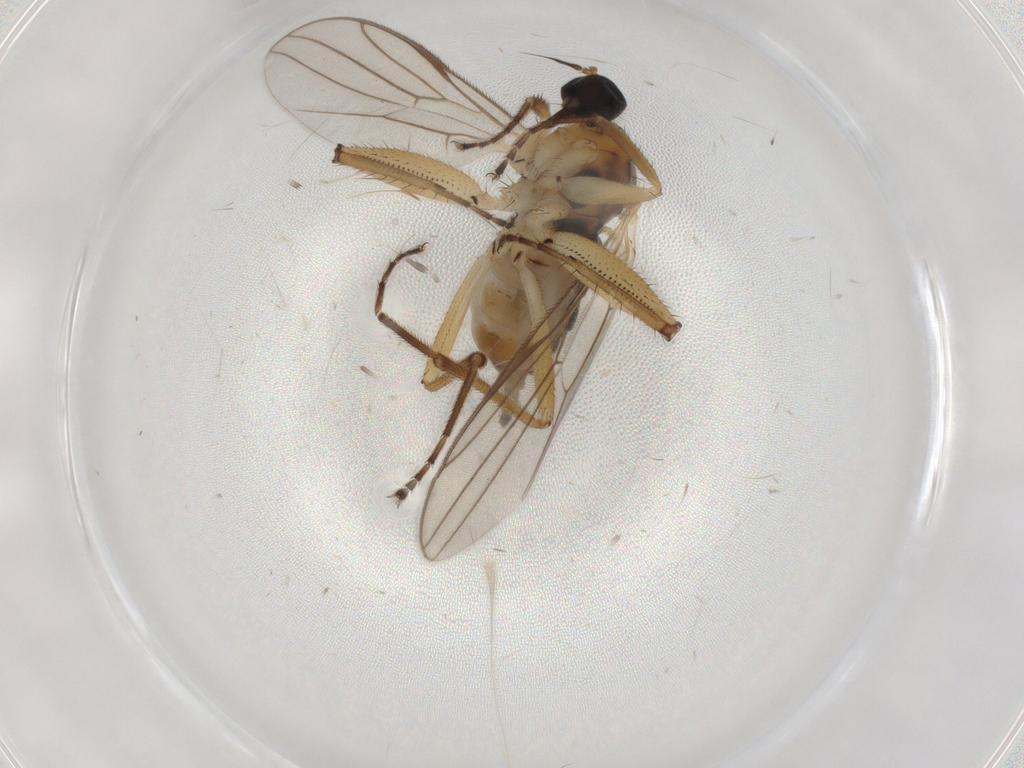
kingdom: Animalia
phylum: Arthropoda
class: Insecta
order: Diptera
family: Hybotidae
